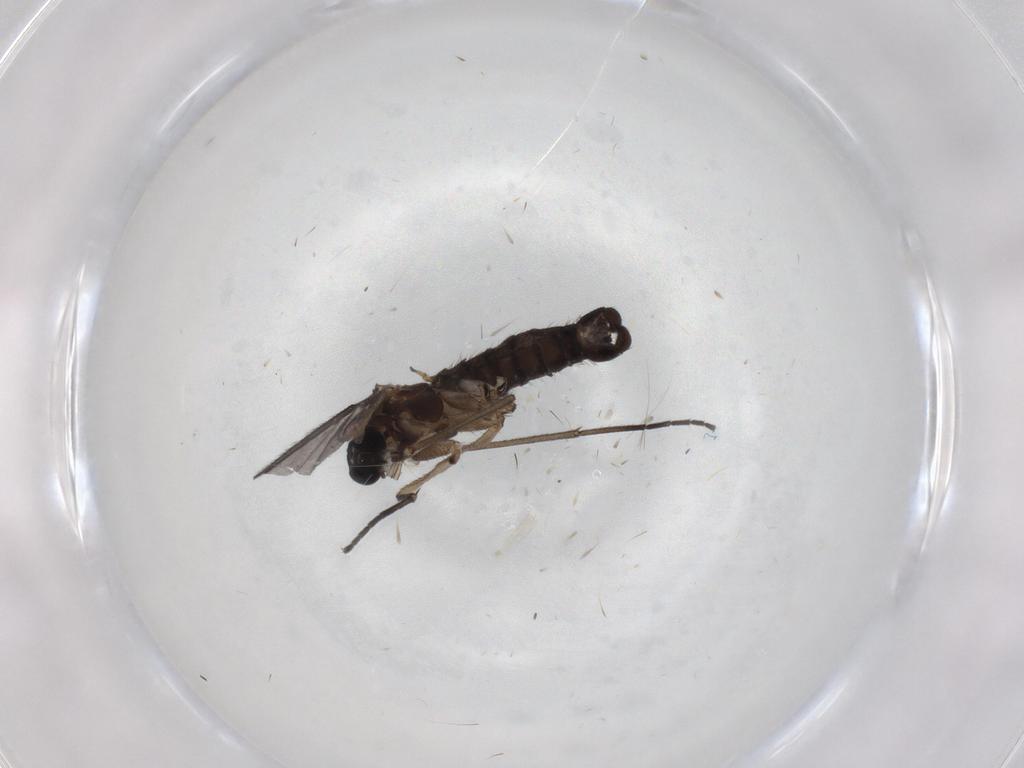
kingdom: Animalia
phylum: Arthropoda
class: Insecta
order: Diptera
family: Sciaridae
